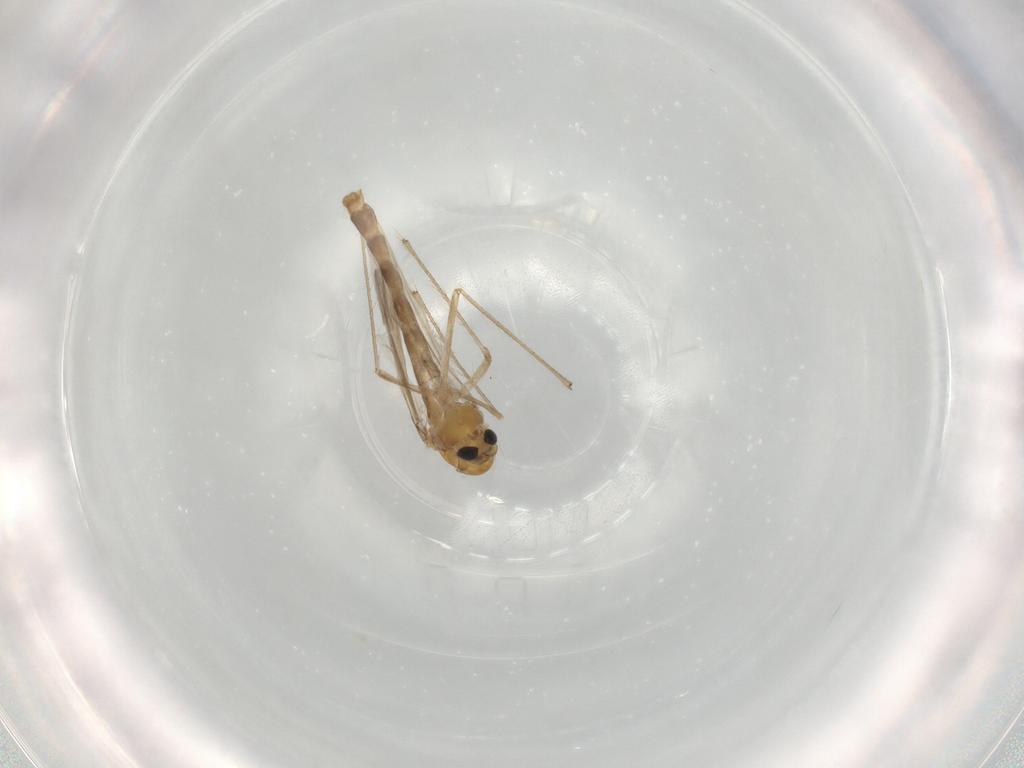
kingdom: Animalia
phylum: Arthropoda
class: Insecta
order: Diptera
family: Chironomidae
